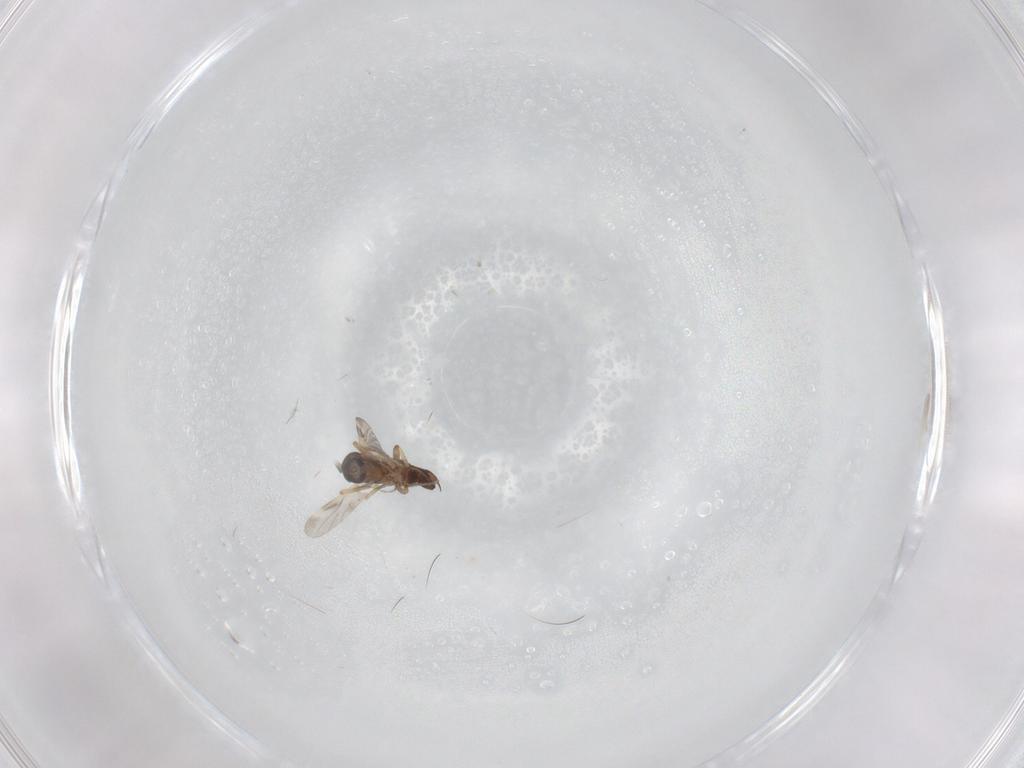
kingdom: Animalia
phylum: Arthropoda
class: Insecta
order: Diptera
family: Ceratopogonidae
